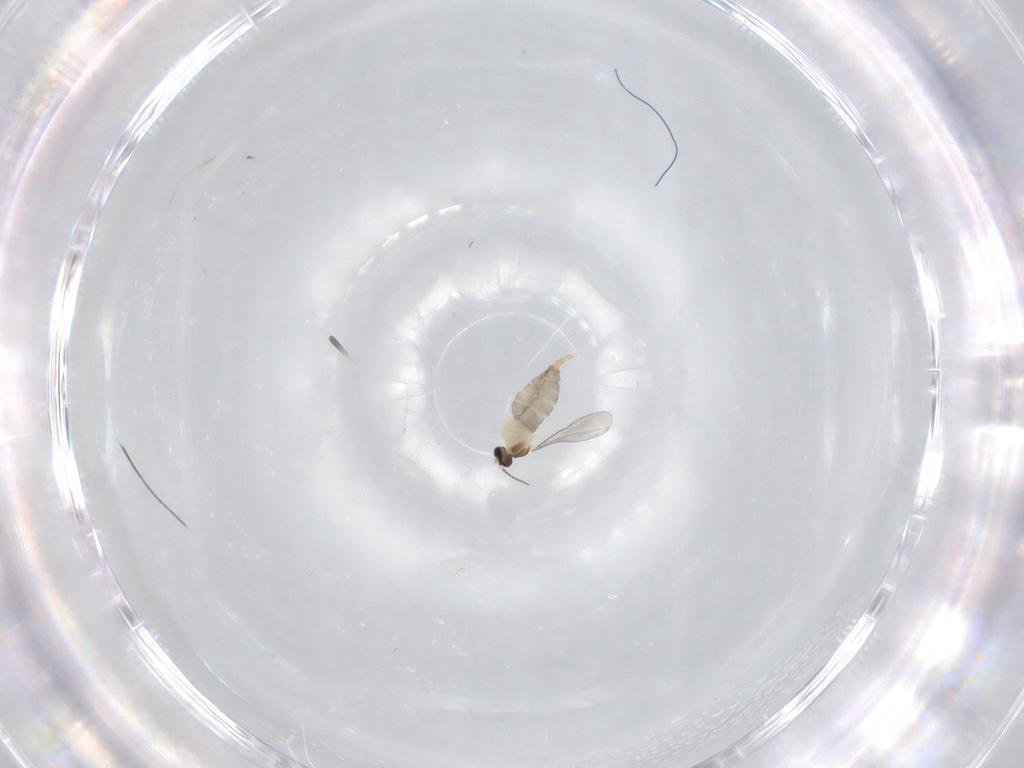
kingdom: Animalia
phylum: Arthropoda
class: Insecta
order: Diptera
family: Cecidomyiidae
